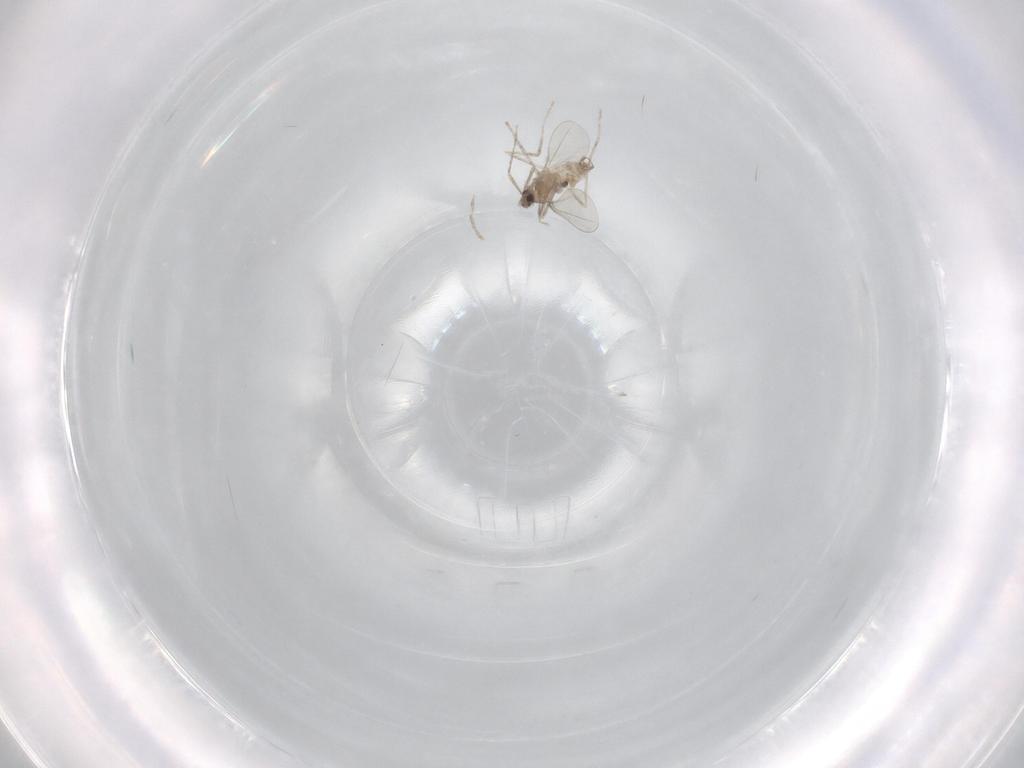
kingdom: Animalia
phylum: Arthropoda
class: Insecta
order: Diptera
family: Cecidomyiidae
